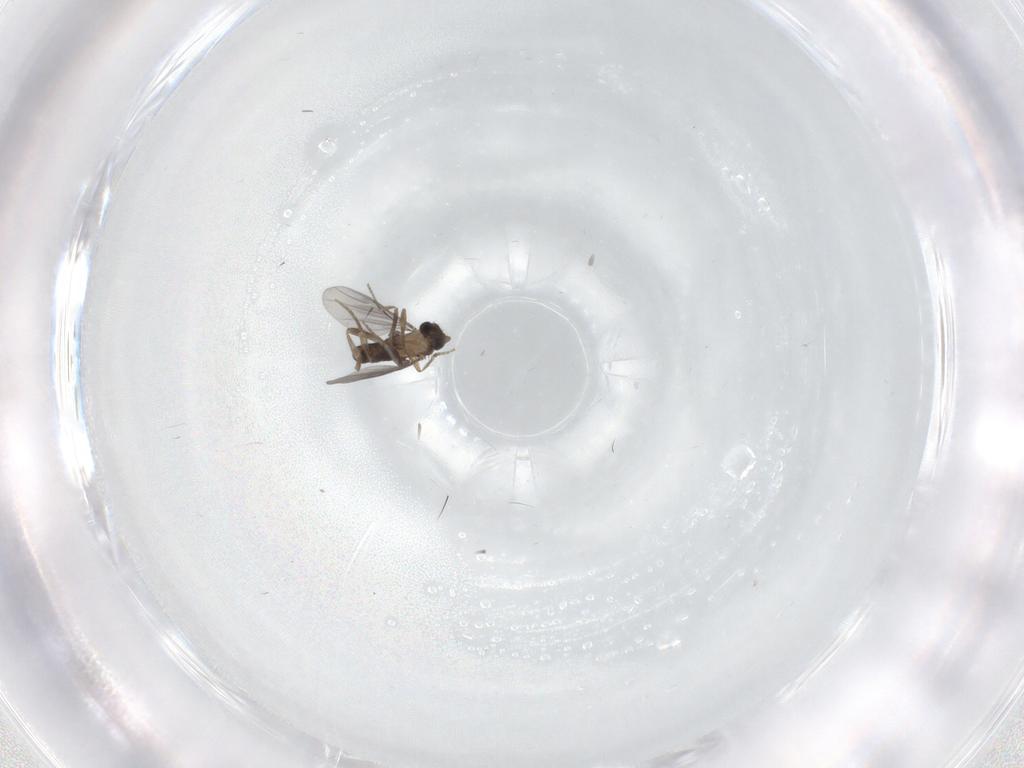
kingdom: Animalia
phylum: Arthropoda
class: Insecta
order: Diptera
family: Chironomidae
